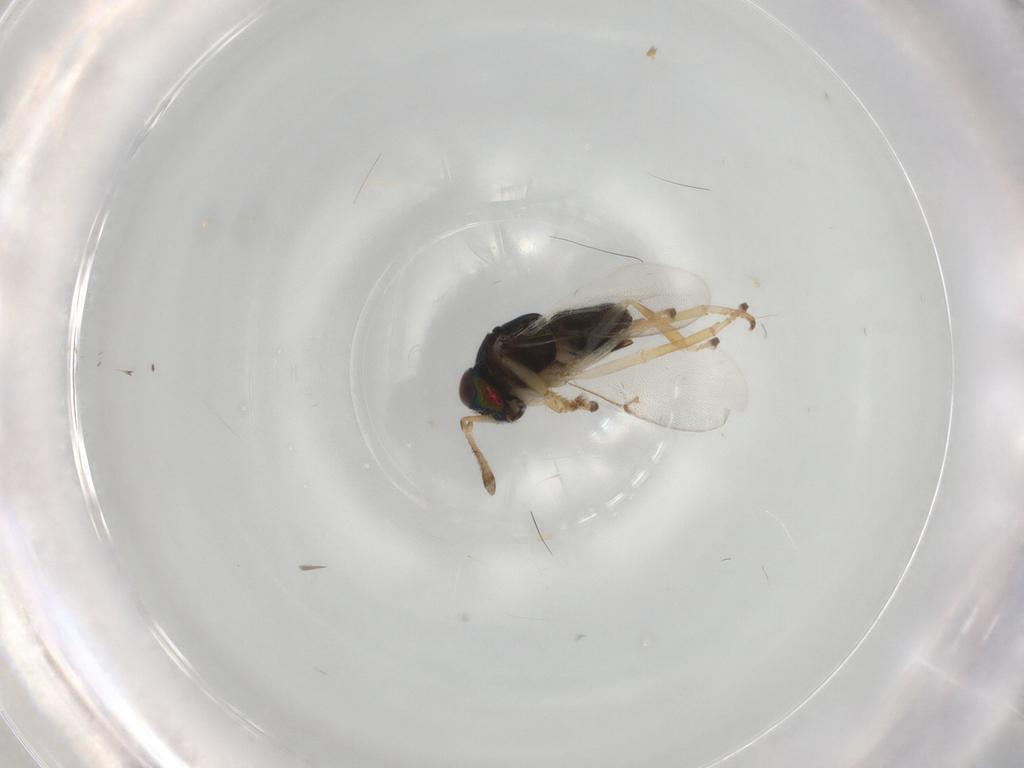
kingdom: Animalia
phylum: Arthropoda
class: Insecta
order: Hymenoptera
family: Encyrtidae
